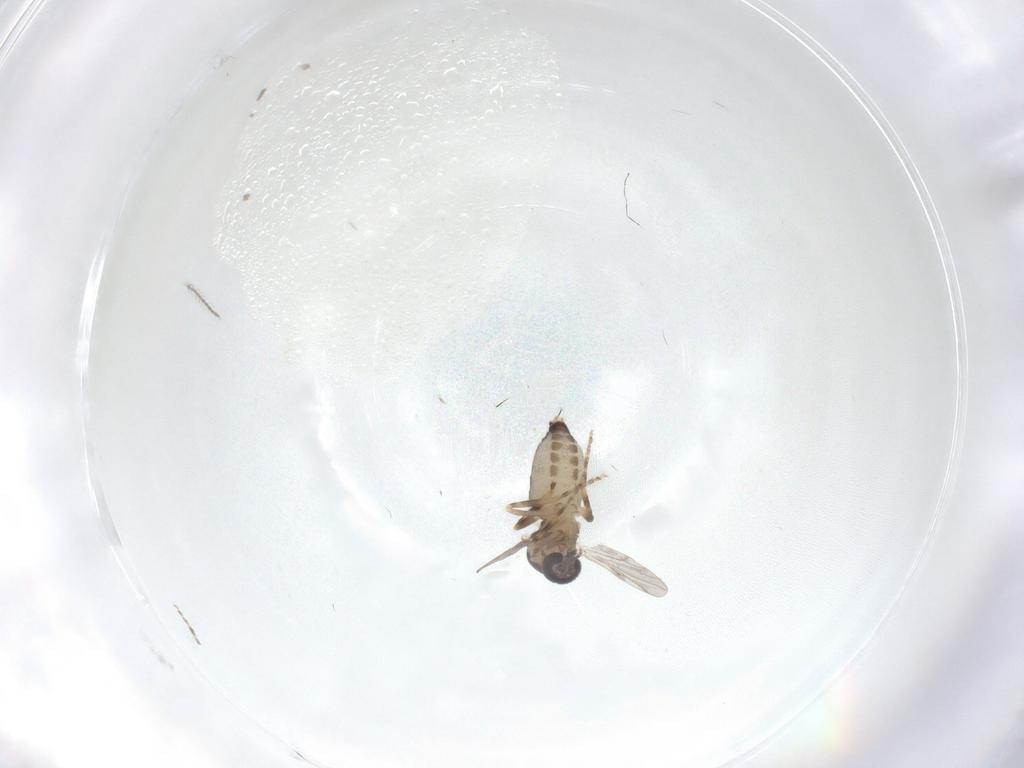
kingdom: Animalia
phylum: Arthropoda
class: Insecta
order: Diptera
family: Ceratopogonidae
